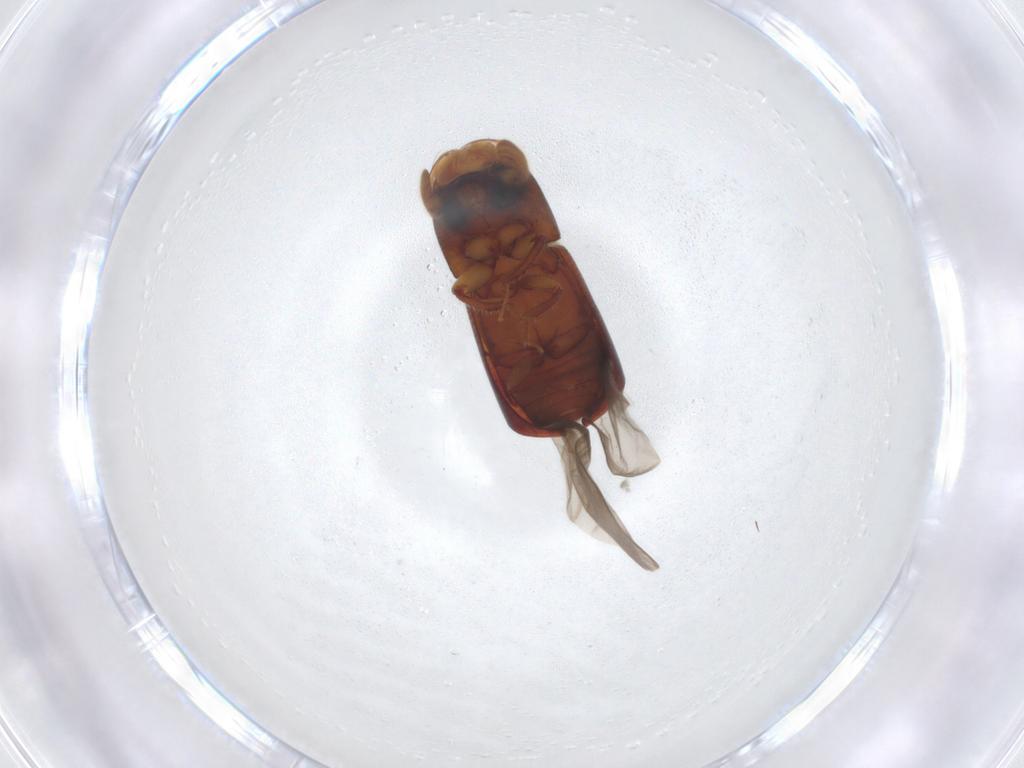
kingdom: Animalia
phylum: Arthropoda
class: Insecta
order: Coleoptera
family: Curculionidae
